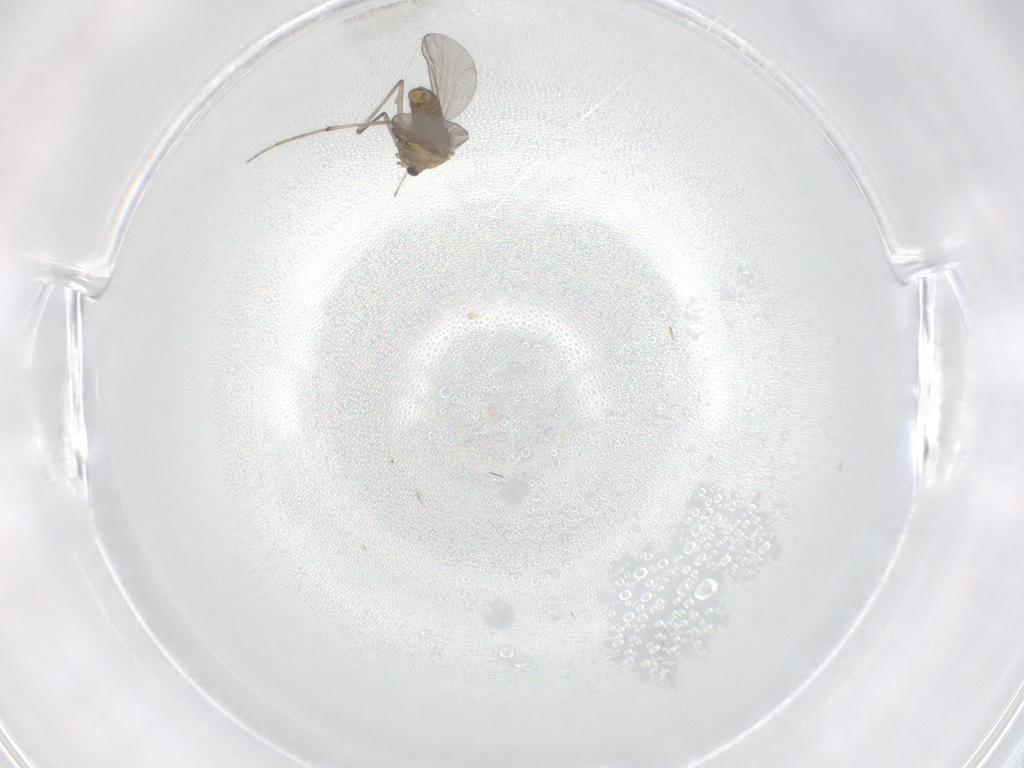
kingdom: Animalia
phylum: Arthropoda
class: Insecta
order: Diptera
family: Chironomidae
